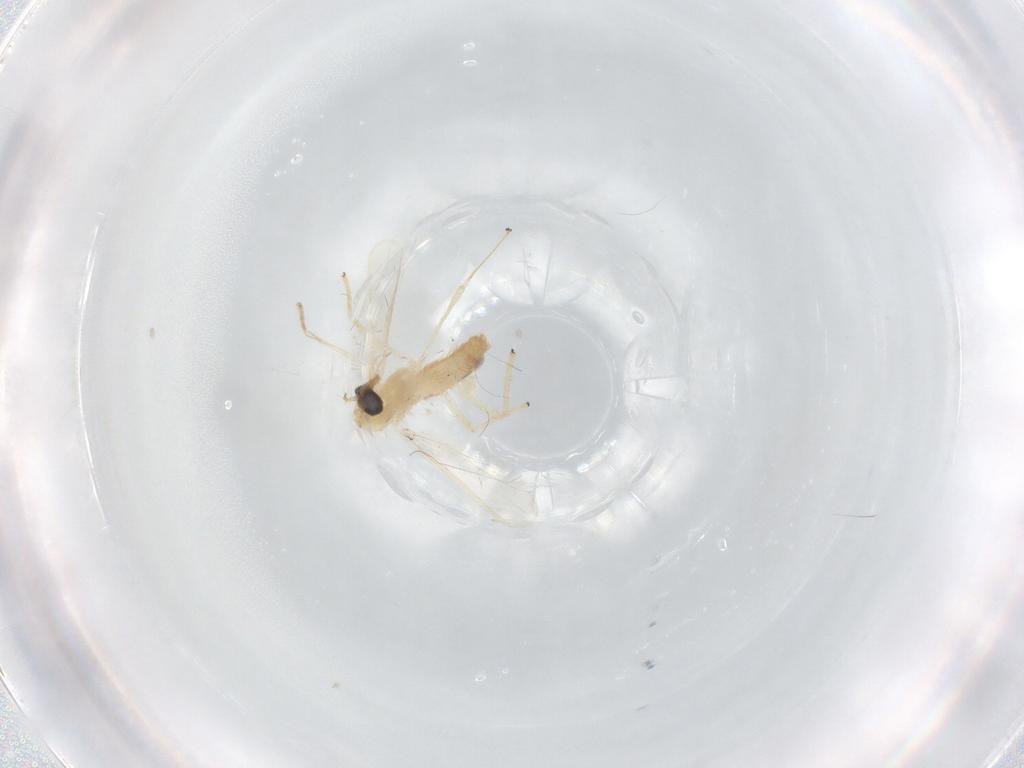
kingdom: Animalia
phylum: Arthropoda
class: Insecta
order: Diptera
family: Chironomidae
